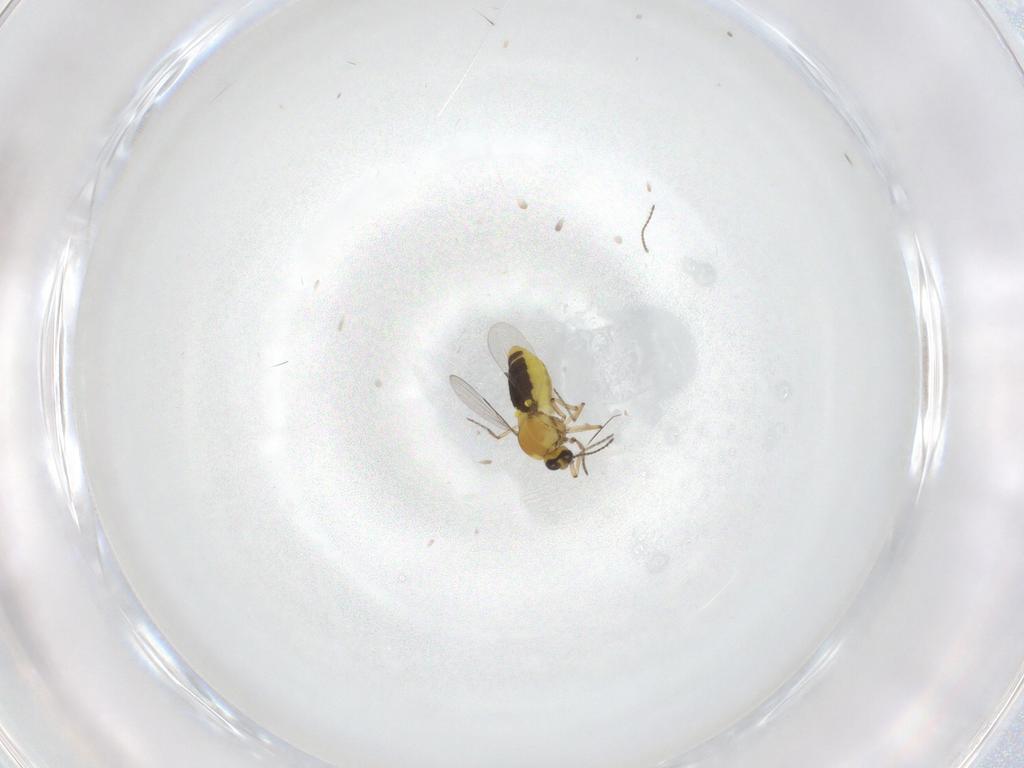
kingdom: Animalia
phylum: Arthropoda
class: Insecta
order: Diptera
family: Ceratopogonidae
